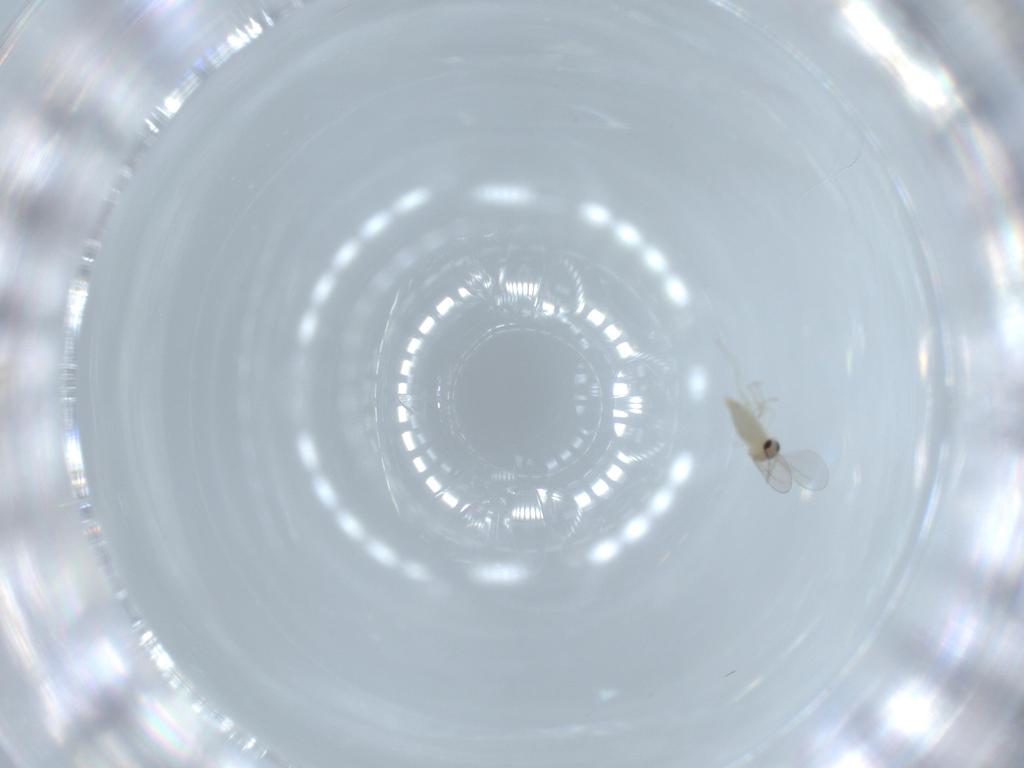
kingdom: Animalia
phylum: Arthropoda
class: Insecta
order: Diptera
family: Cecidomyiidae
